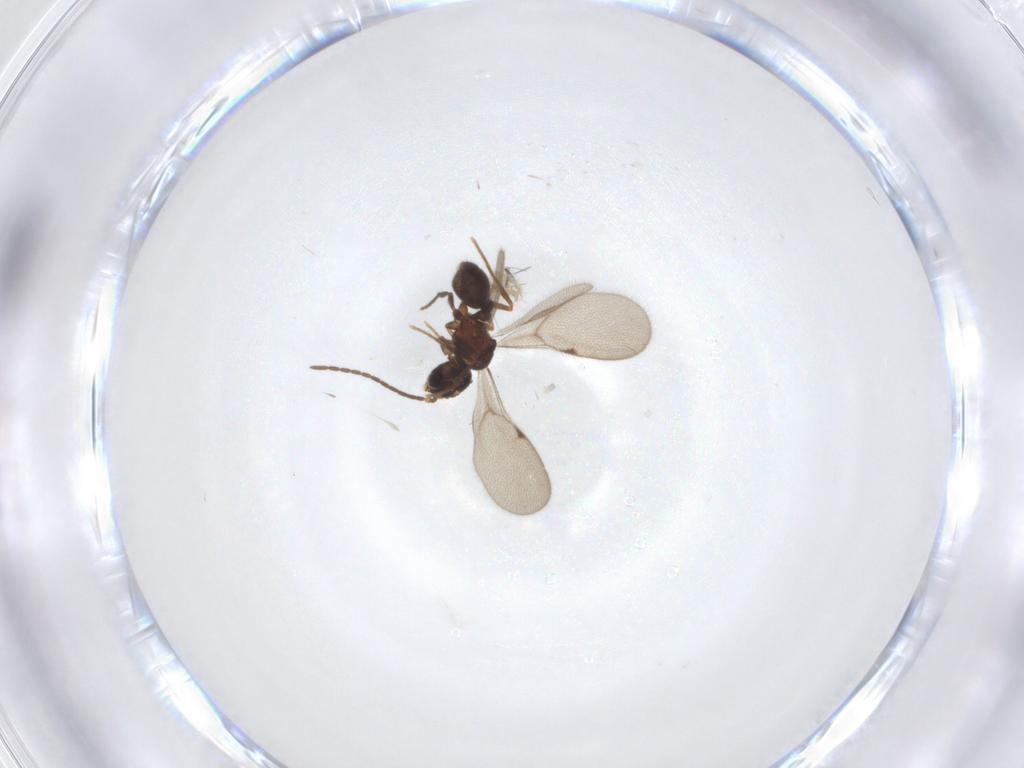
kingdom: Animalia
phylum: Arthropoda
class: Insecta
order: Hymenoptera
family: Formicidae
